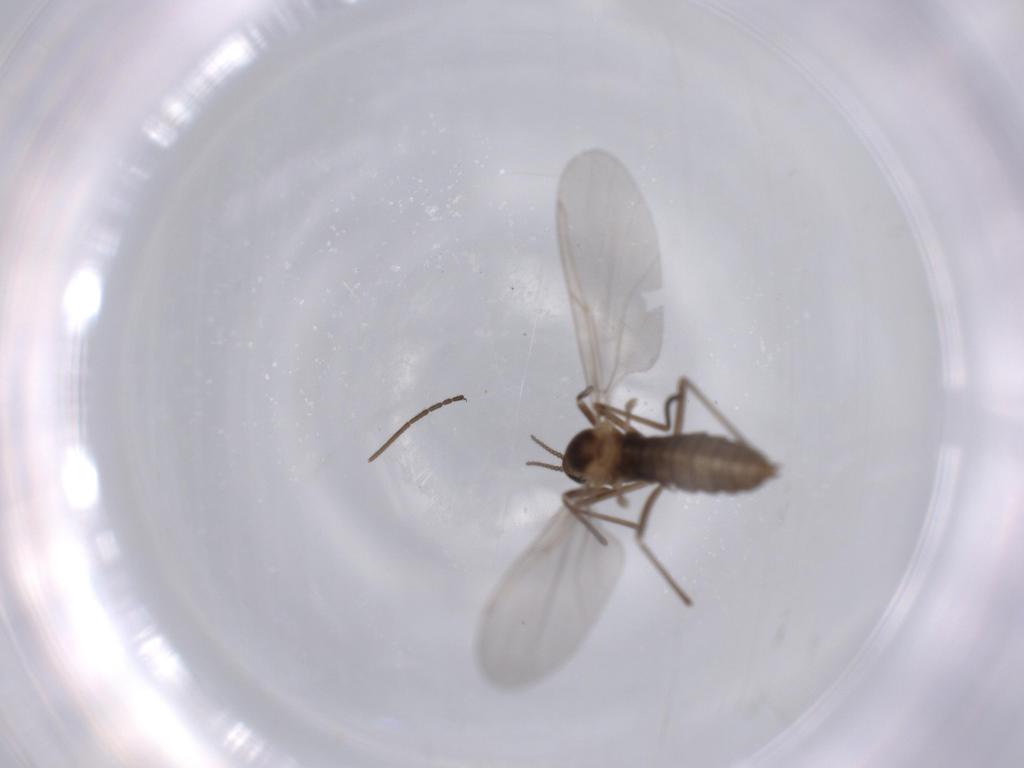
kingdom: Animalia
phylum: Arthropoda
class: Insecta
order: Diptera
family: Cecidomyiidae
